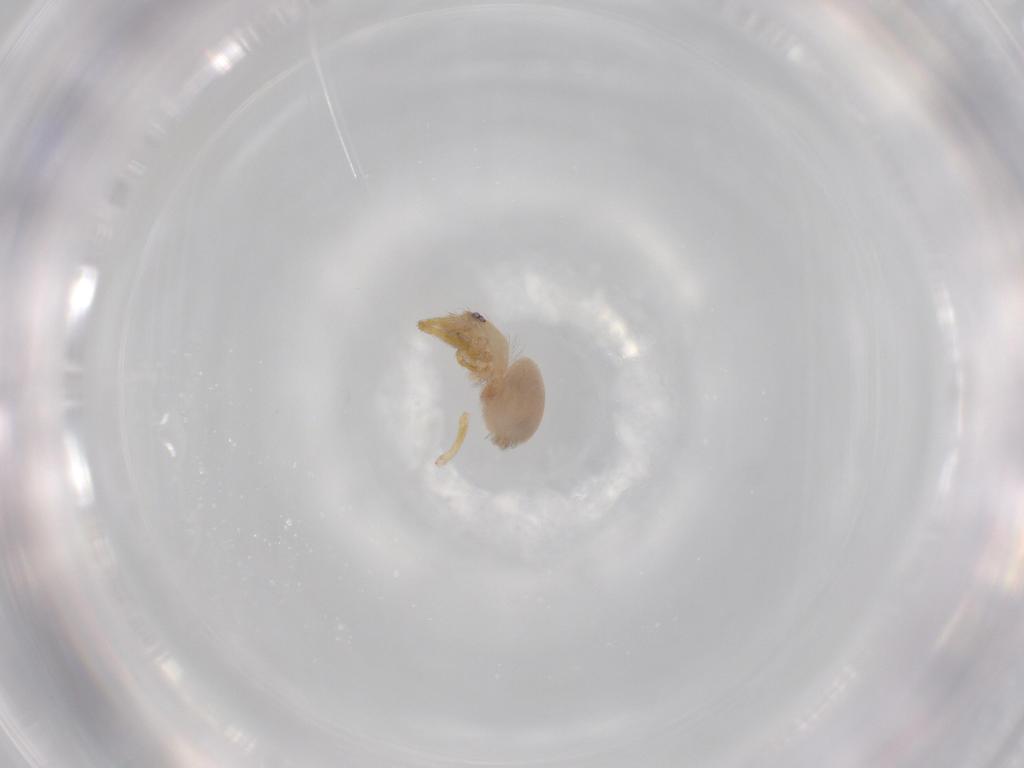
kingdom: Animalia
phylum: Arthropoda
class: Arachnida
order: Araneae
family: Oonopidae
